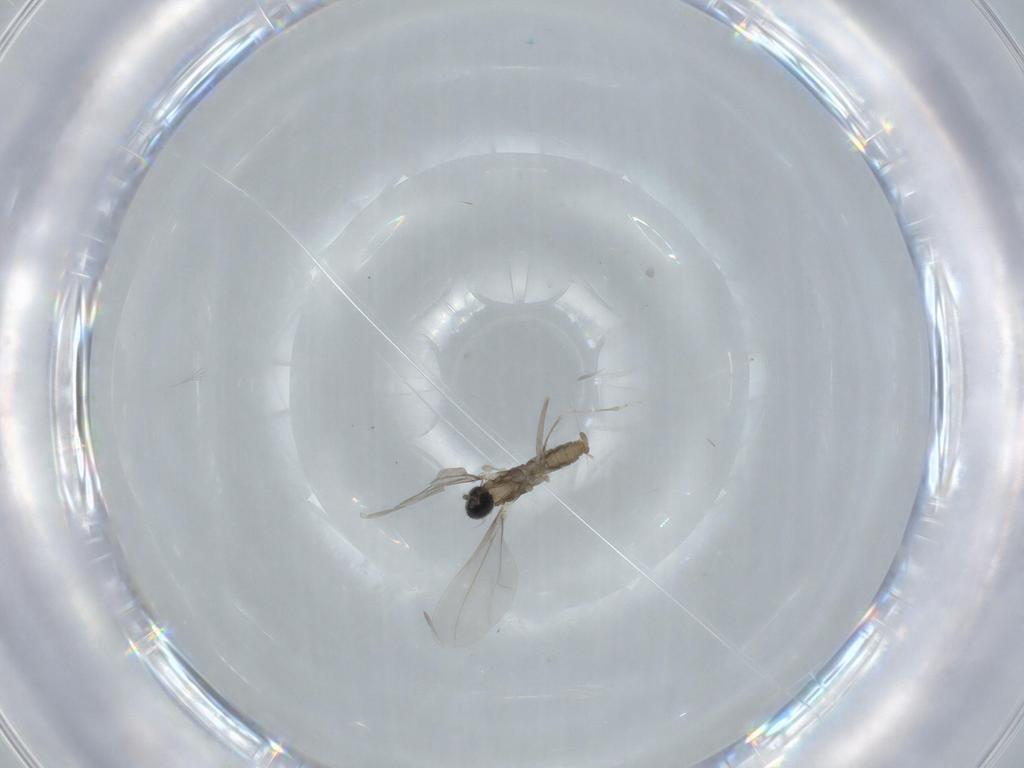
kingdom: Animalia
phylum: Arthropoda
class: Insecta
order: Diptera
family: Cecidomyiidae
